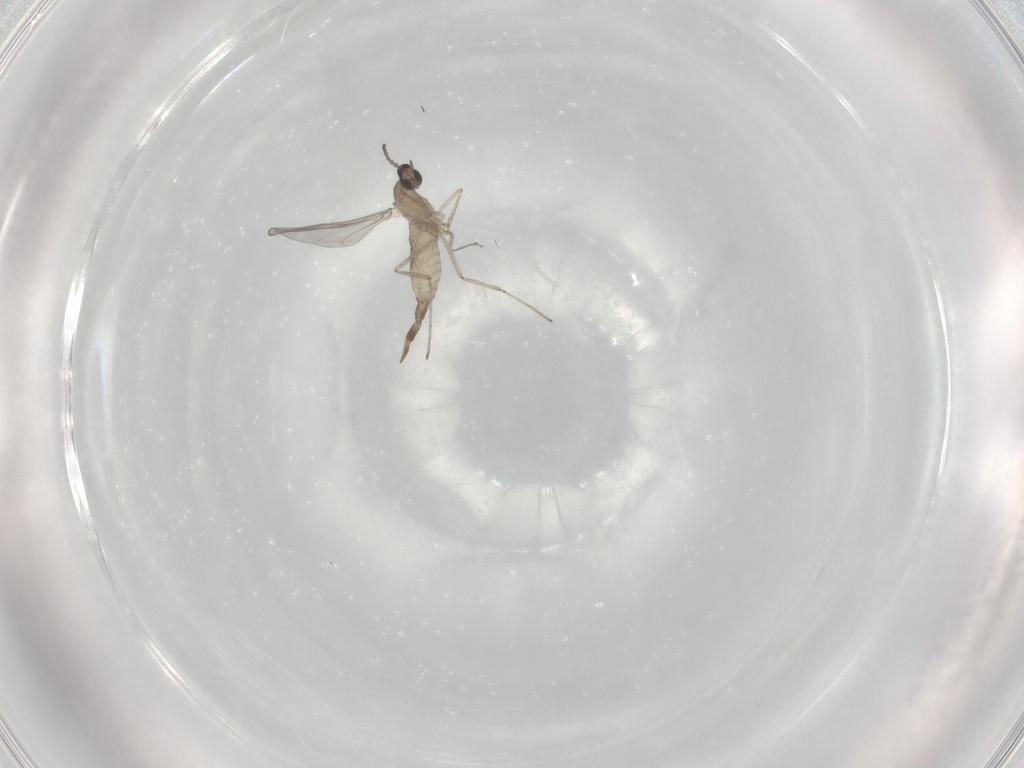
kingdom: Animalia
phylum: Arthropoda
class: Insecta
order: Diptera
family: Cecidomyiidae
